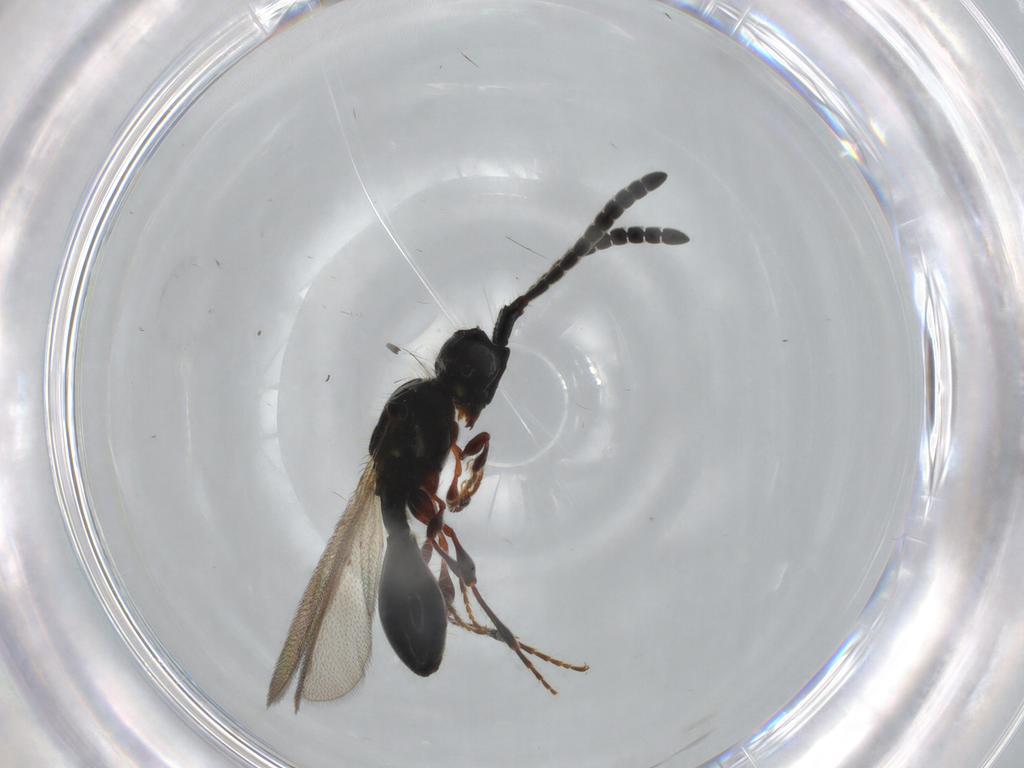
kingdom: Animalia
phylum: Arthropoda
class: Insecta
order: Hymenoptera
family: Diapriidae
